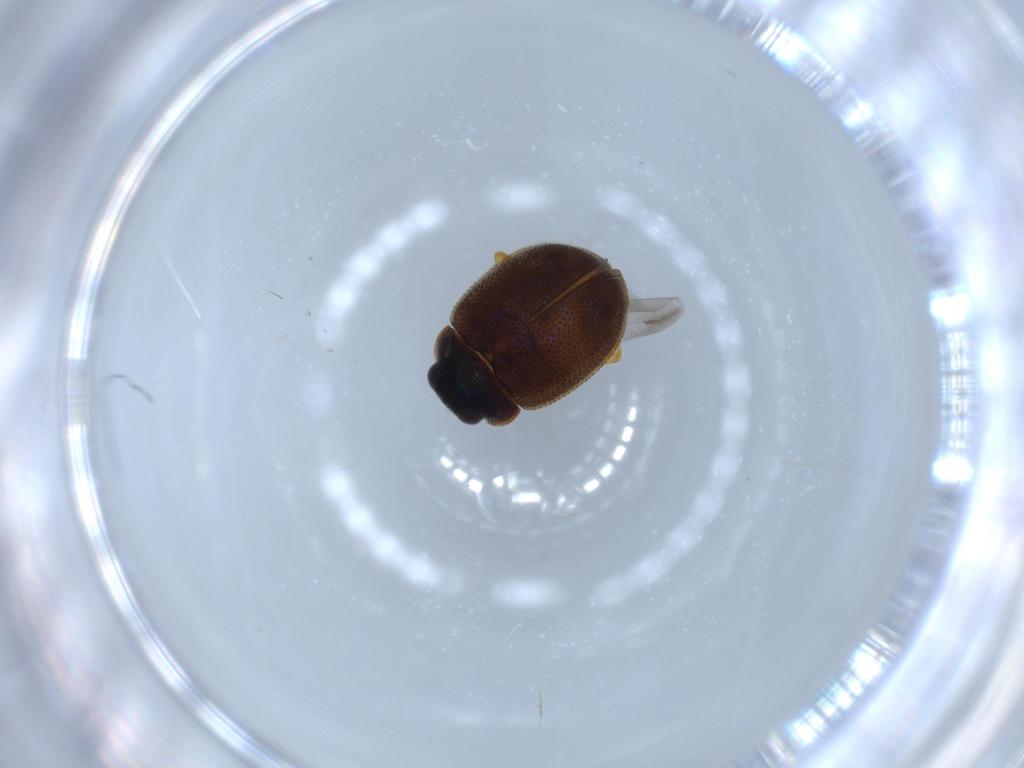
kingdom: Animalia
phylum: Arthropoda
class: Insecta
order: Coleoptera
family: Coccinellidae
